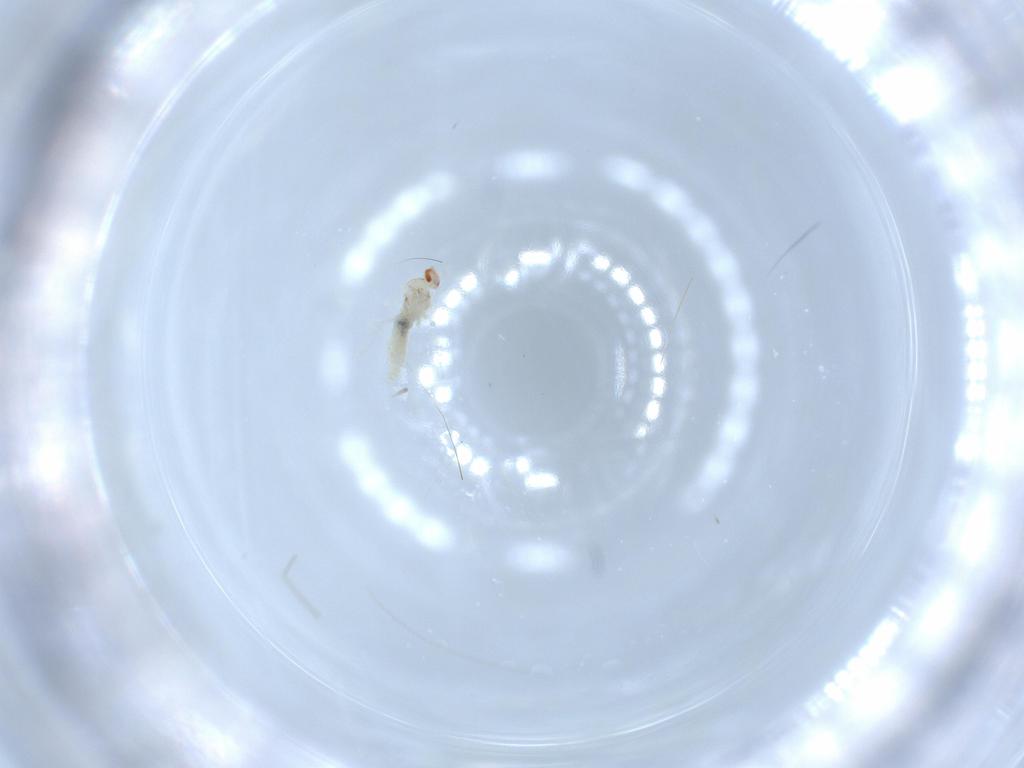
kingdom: Animalia
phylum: Arthropoda
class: Insecta
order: Diptera
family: Cecidomyiidae
